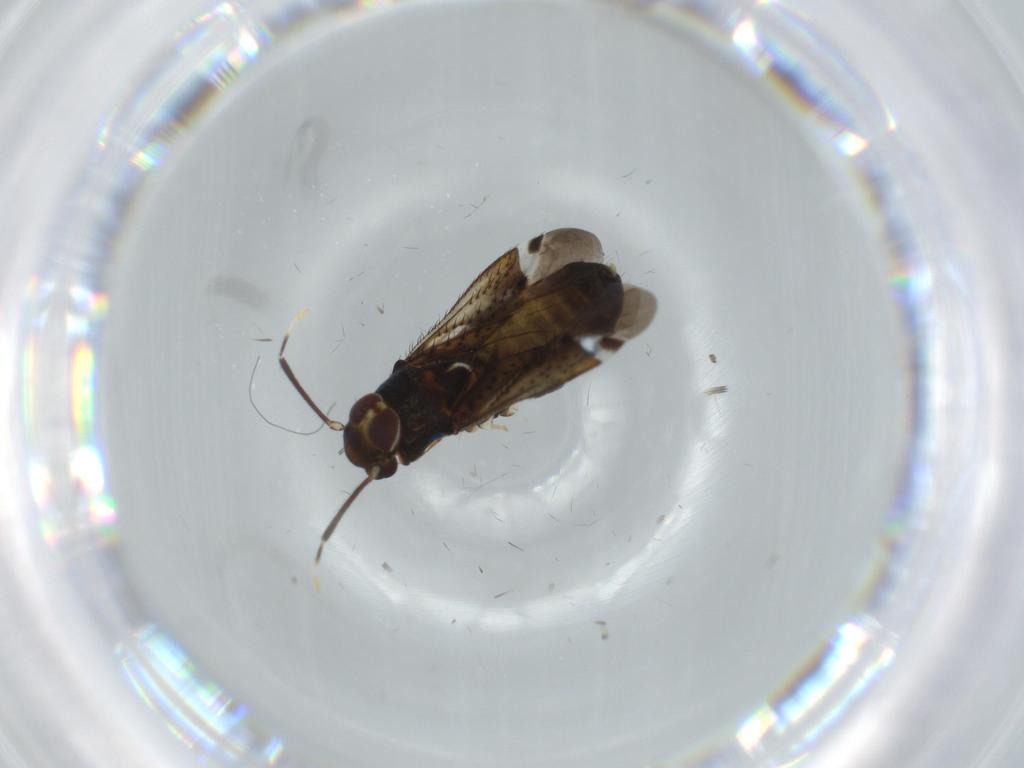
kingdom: Animalia
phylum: Arthropoda
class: Insecta
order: Hemiptera
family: Miridae
